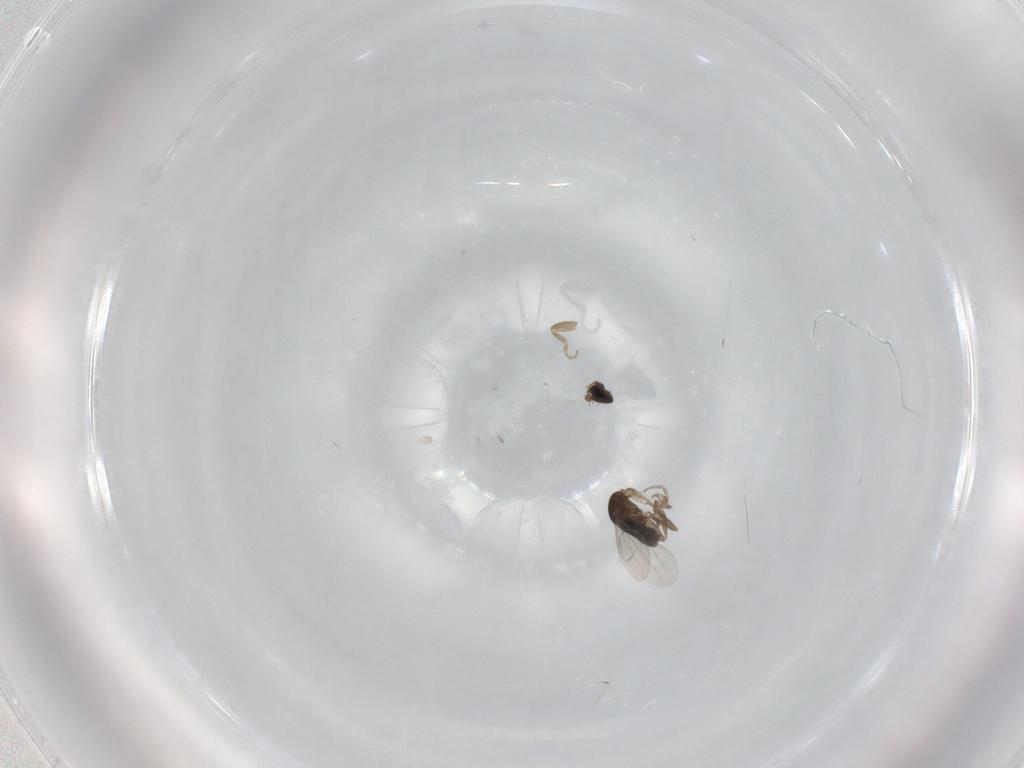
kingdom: Animalia
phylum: Arthropoda
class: Insecta
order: Diptera
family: Phoridae
